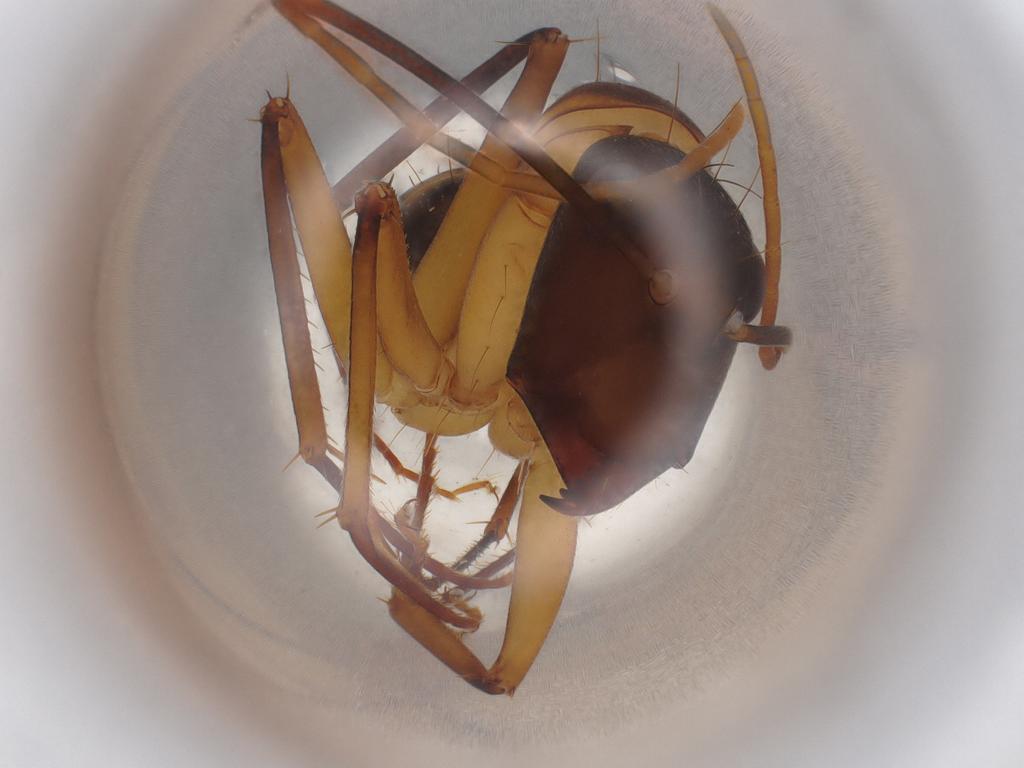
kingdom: Animalia
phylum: Arthropoda
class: Insecta
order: Hymenoptera
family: Formicidae
